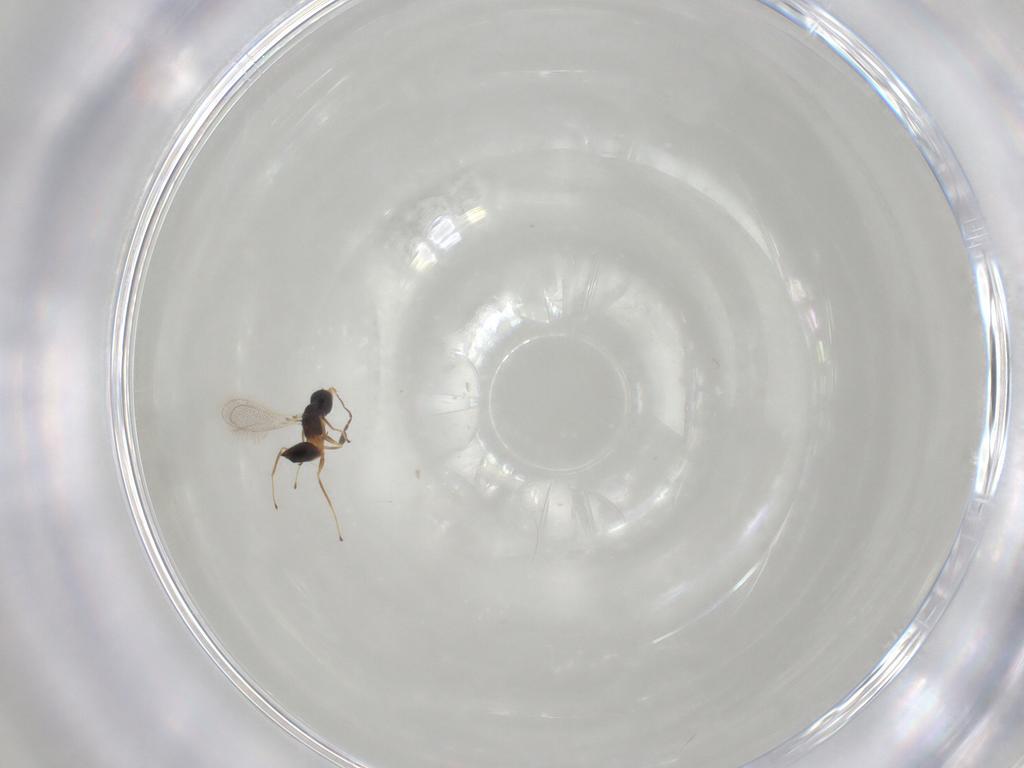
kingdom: Animalia
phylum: Arthropoda
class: Insecta
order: Hymenoptera
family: Mymaridae
